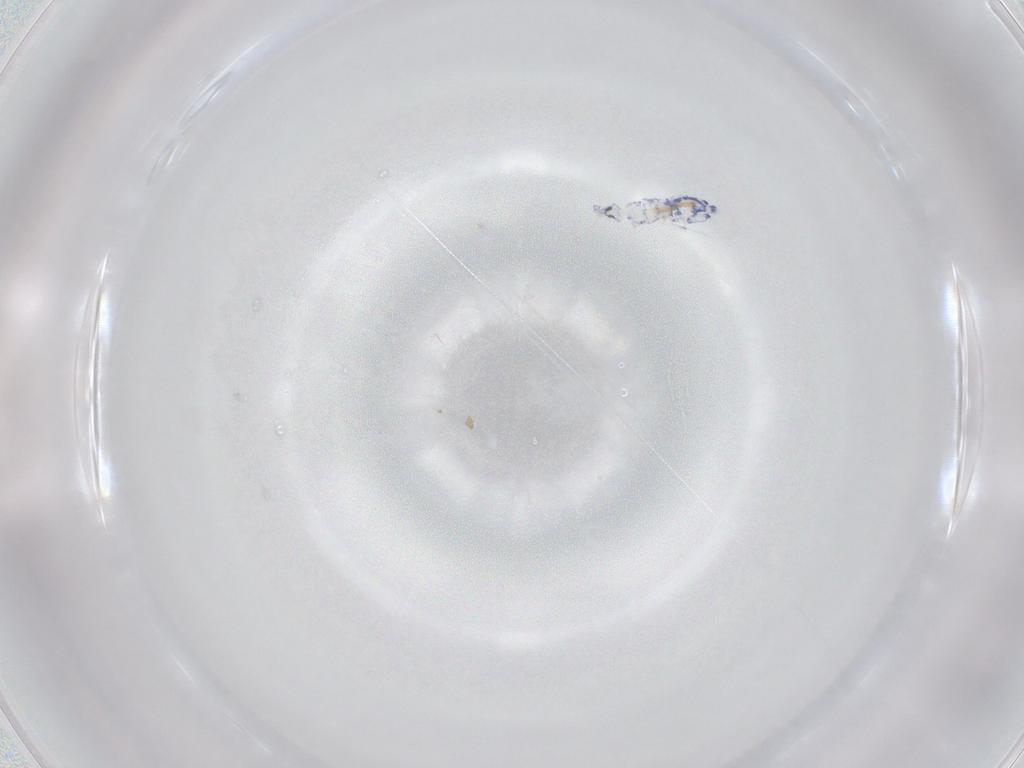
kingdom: Animalia
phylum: Arthropoda
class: Collembola
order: Entomobryomorpha
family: Entomobryidae
